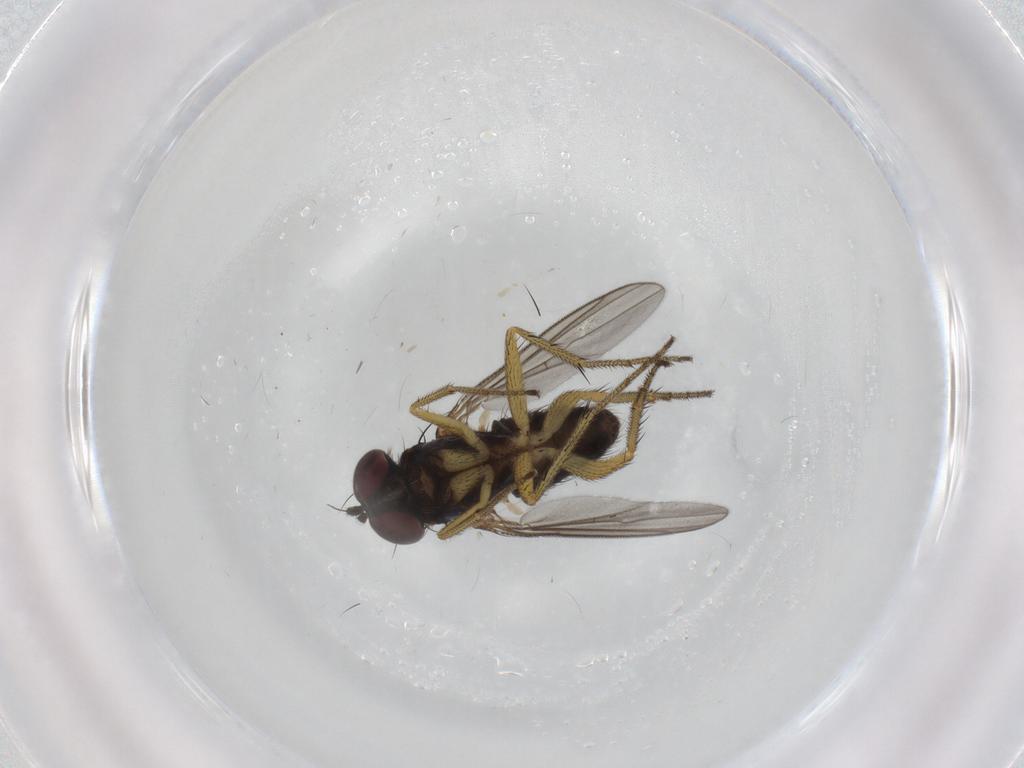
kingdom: Animalia
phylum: Arthropoda
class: Insecta
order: Diptera
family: Dolichopodidae
